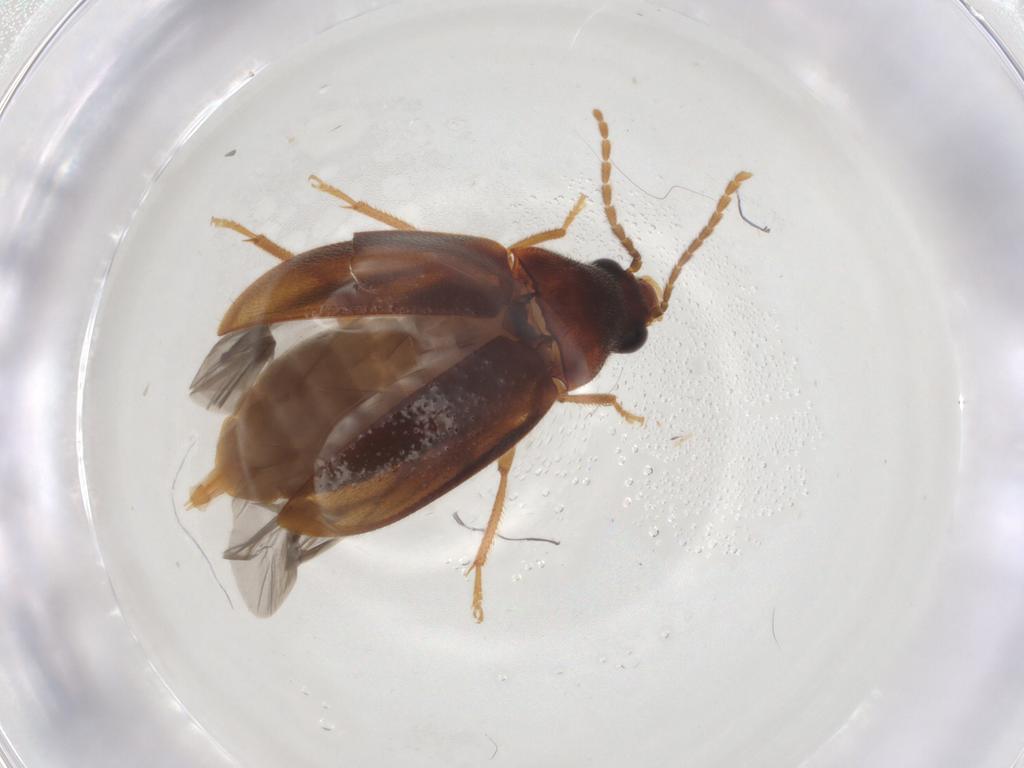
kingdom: Animalia
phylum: Arthropoda
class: Insecta
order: Coleoptera
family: Ptilodactylidae
